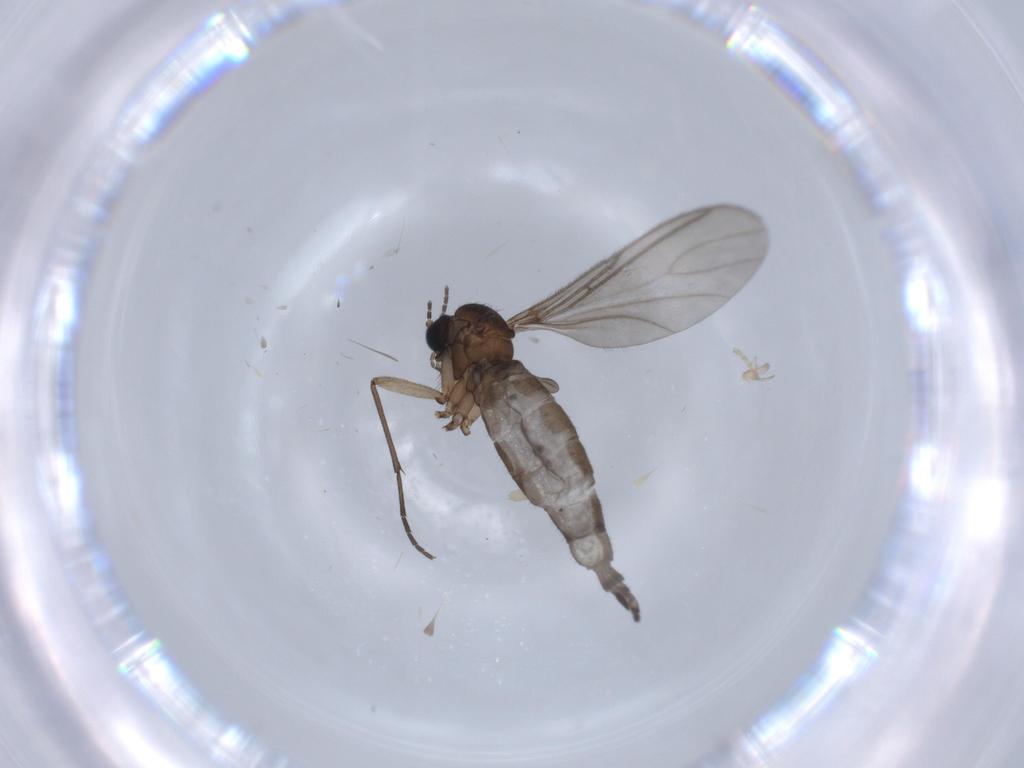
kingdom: Animalia
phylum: Arthropoda
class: Insecta
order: Diptera
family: Sciaridae
